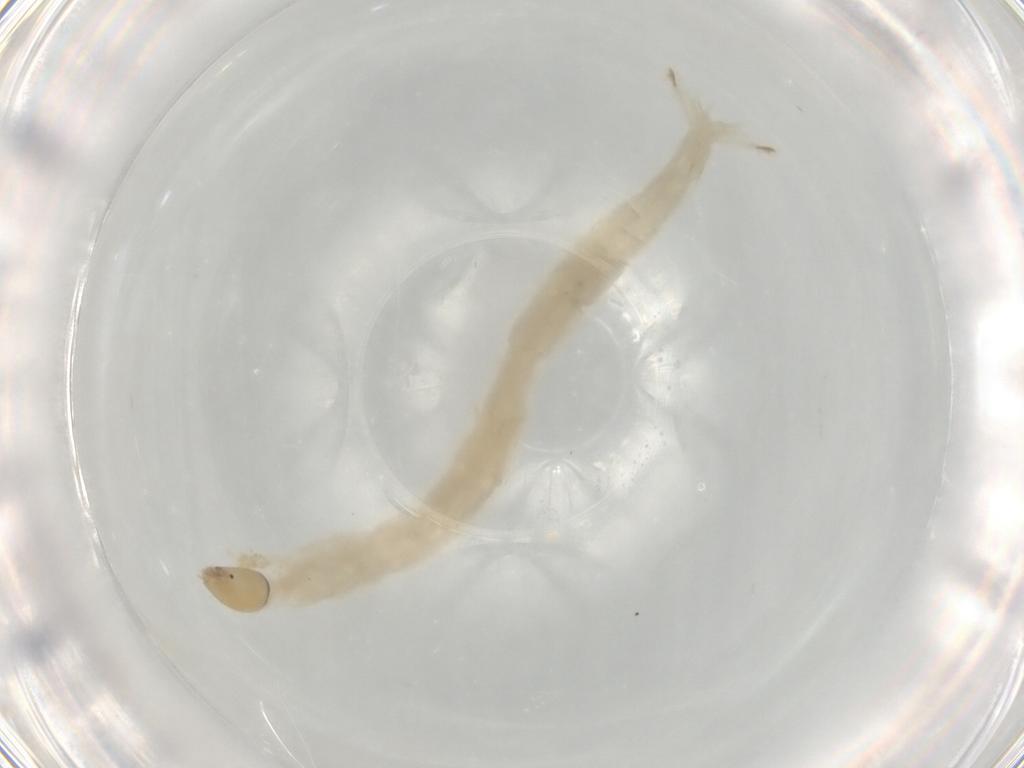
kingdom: Animalia
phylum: Arthropoda
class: Insecta
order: Diptera
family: Chironomidae
